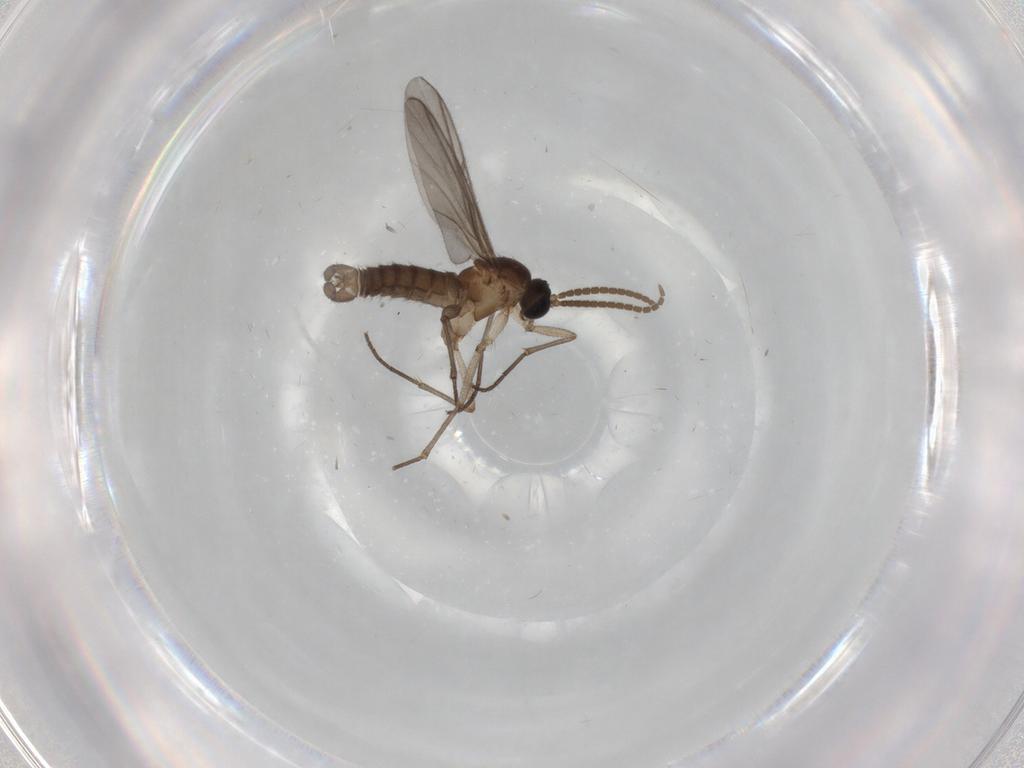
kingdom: Animalia
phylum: Arthropoda
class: Insecta
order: Diptera
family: Cecidomyiidae
